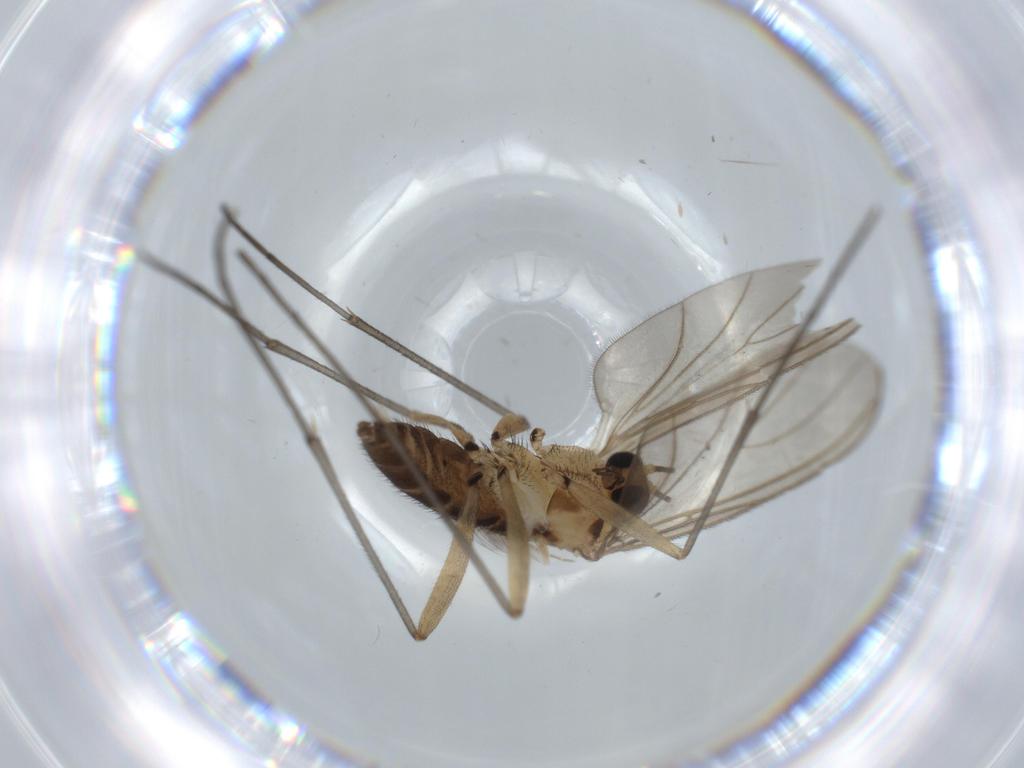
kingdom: Animalia
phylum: Arthropoda
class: Insecta
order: Diptera
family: Sciaridae
